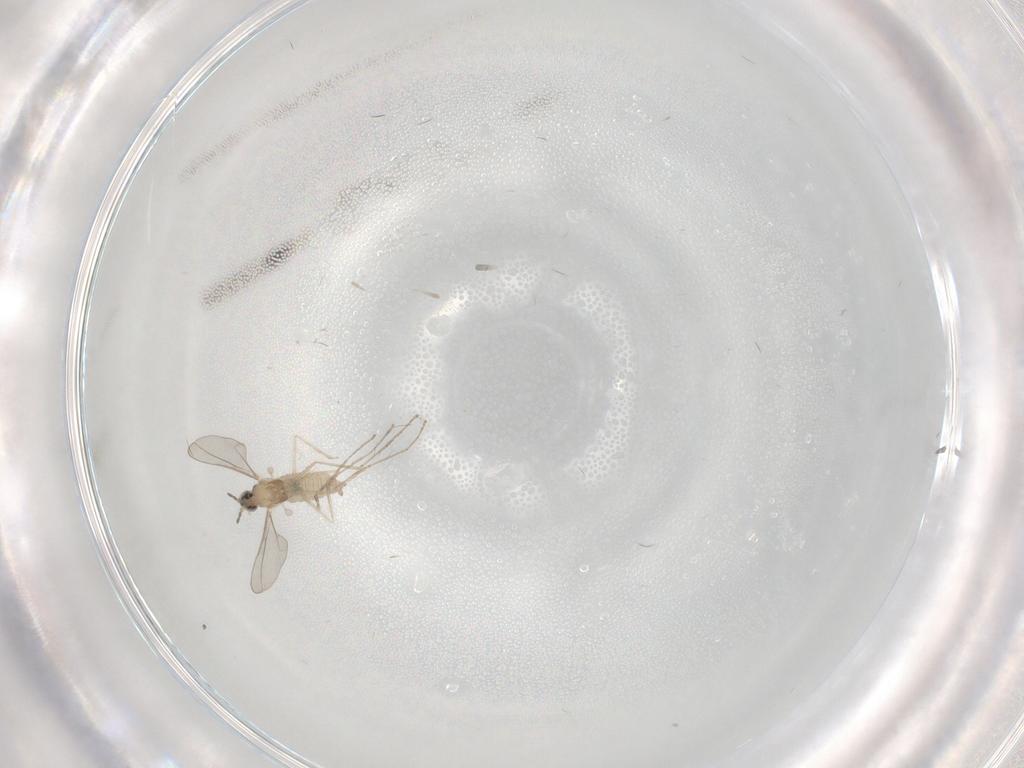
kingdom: Animalia
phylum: Arthropoda
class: Insecta
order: Diptera
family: Cecidomyiidae
